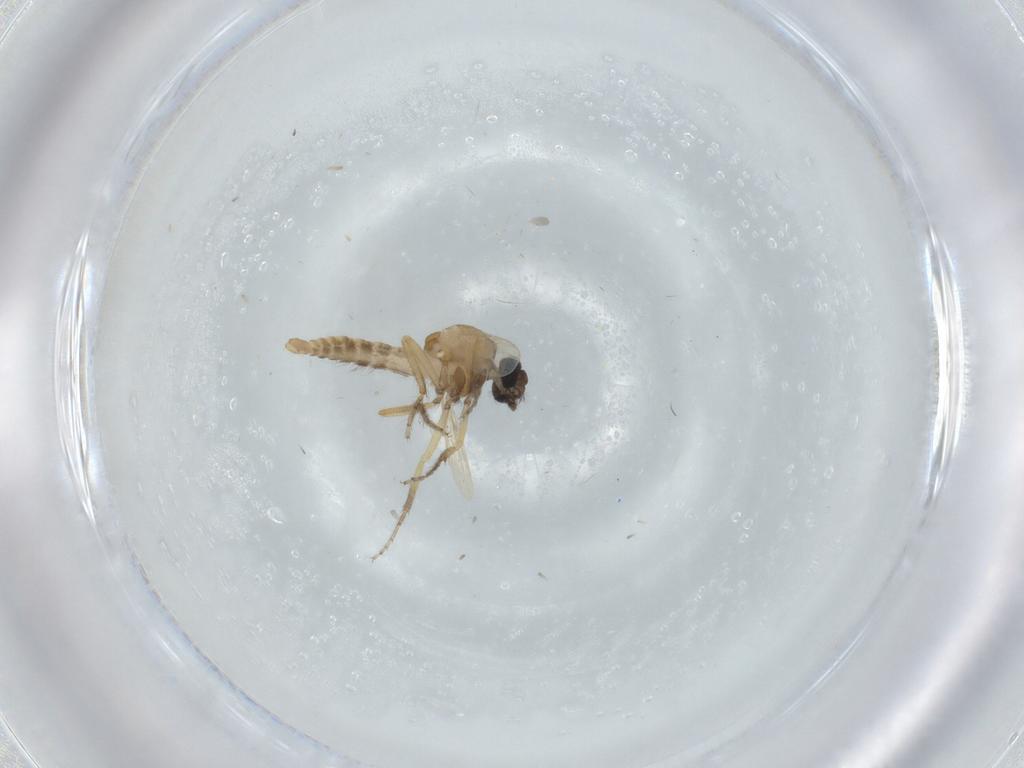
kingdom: Animalia
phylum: Arthropoda
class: Insecta
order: Diptera
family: Ceratopogonidae
